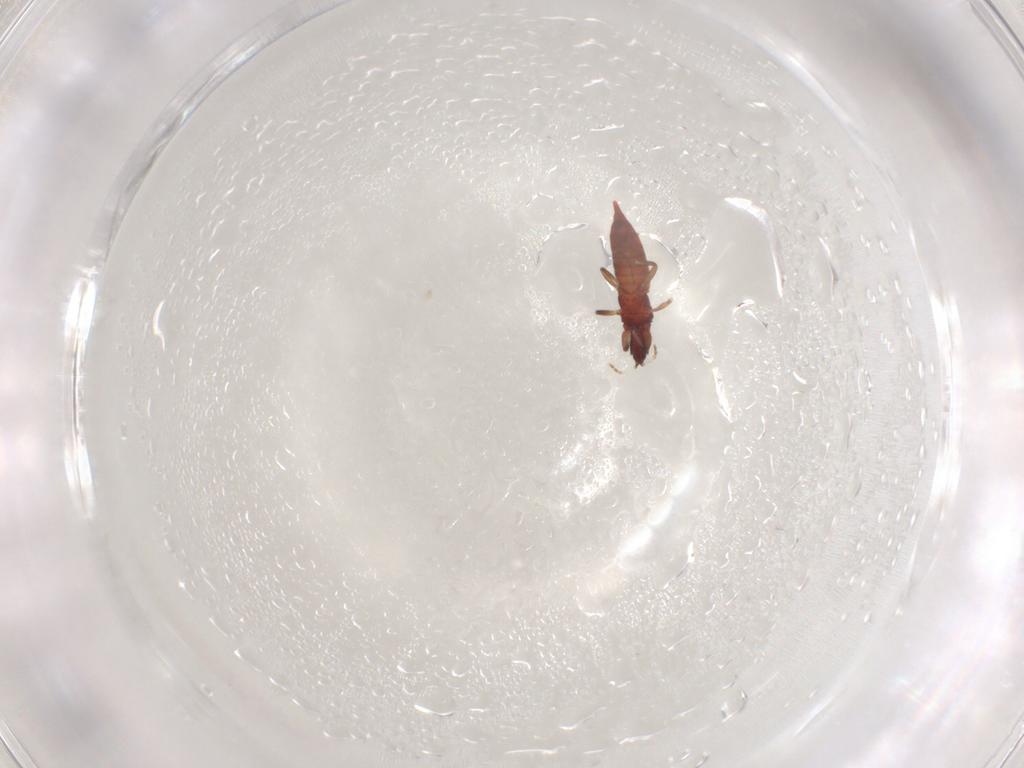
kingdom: Animalia
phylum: Arthropoda
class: Insecta
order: Thysanoptera
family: Phlaeothripidae
